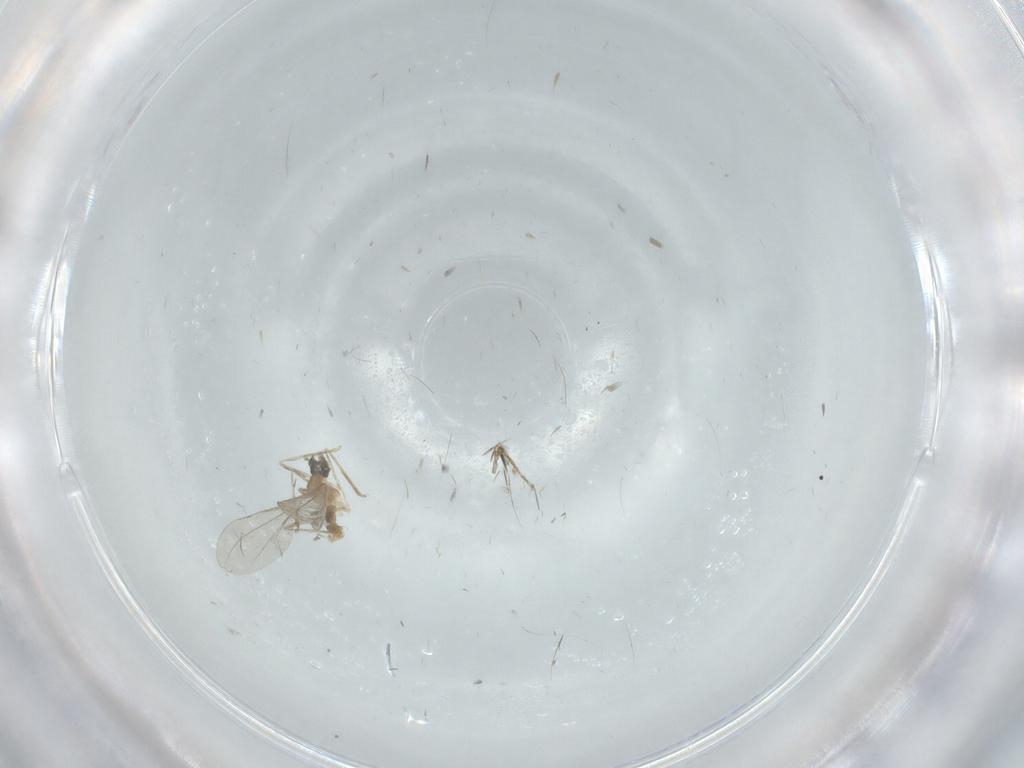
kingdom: Animalia
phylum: Arthropoda
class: Insecta
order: Diptera
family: Cecidomyiidae
